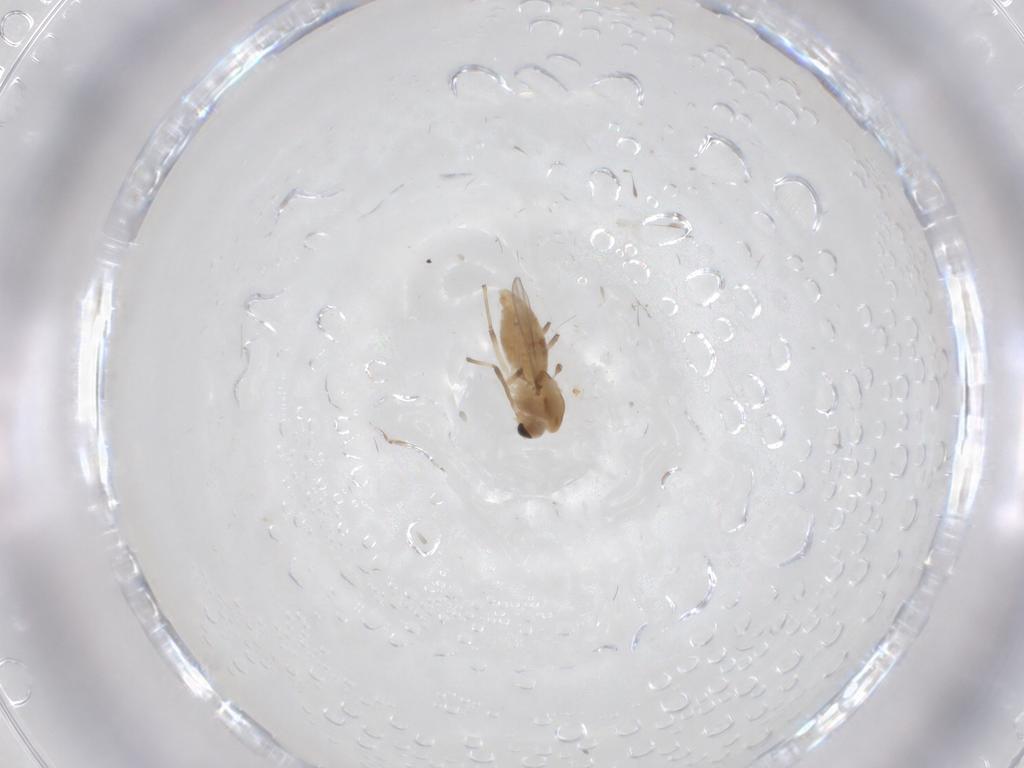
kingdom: Animalia
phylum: Arthropoda
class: Insecta
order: Diptera
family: Chironomidae
